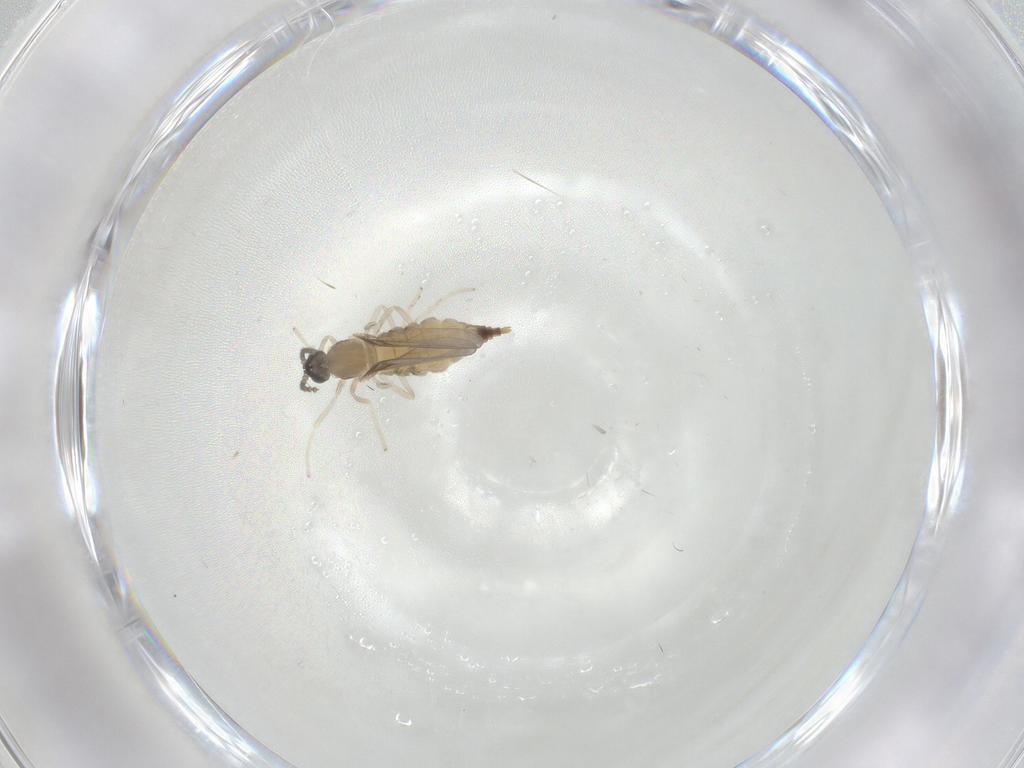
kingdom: Animalia
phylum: Arthropoda
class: Insecta
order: Diptera
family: Cecidomyiidae
